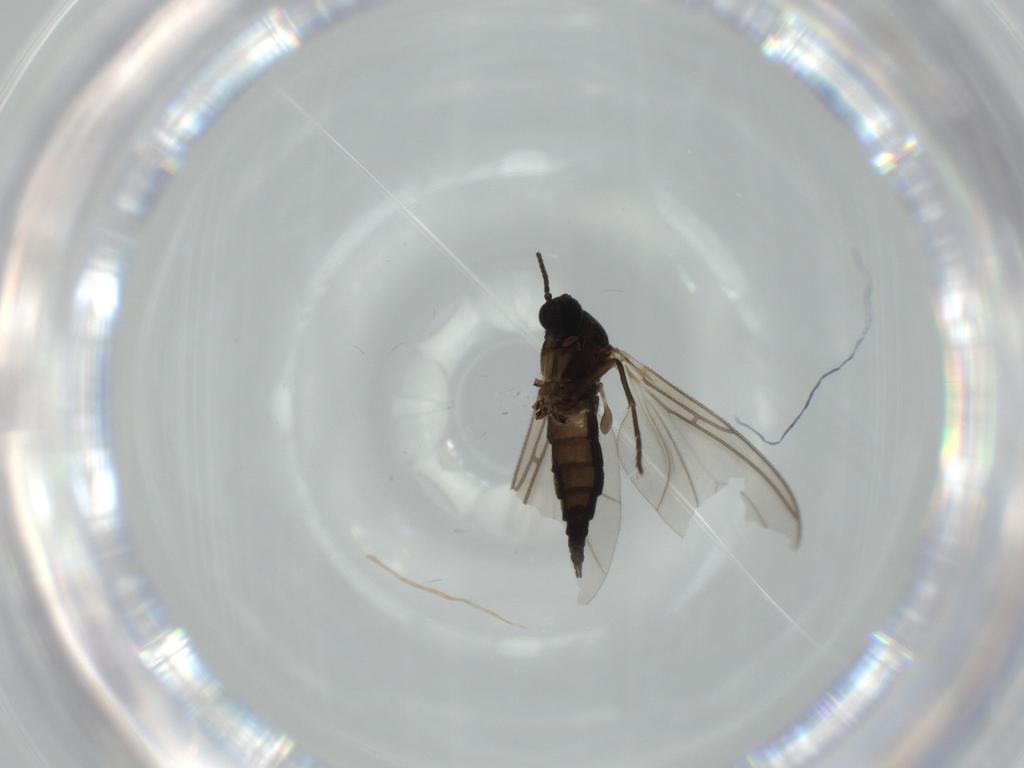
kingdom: Animalia
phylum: Arthropoda
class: Insecta
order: Diptera
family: Sciaridae
